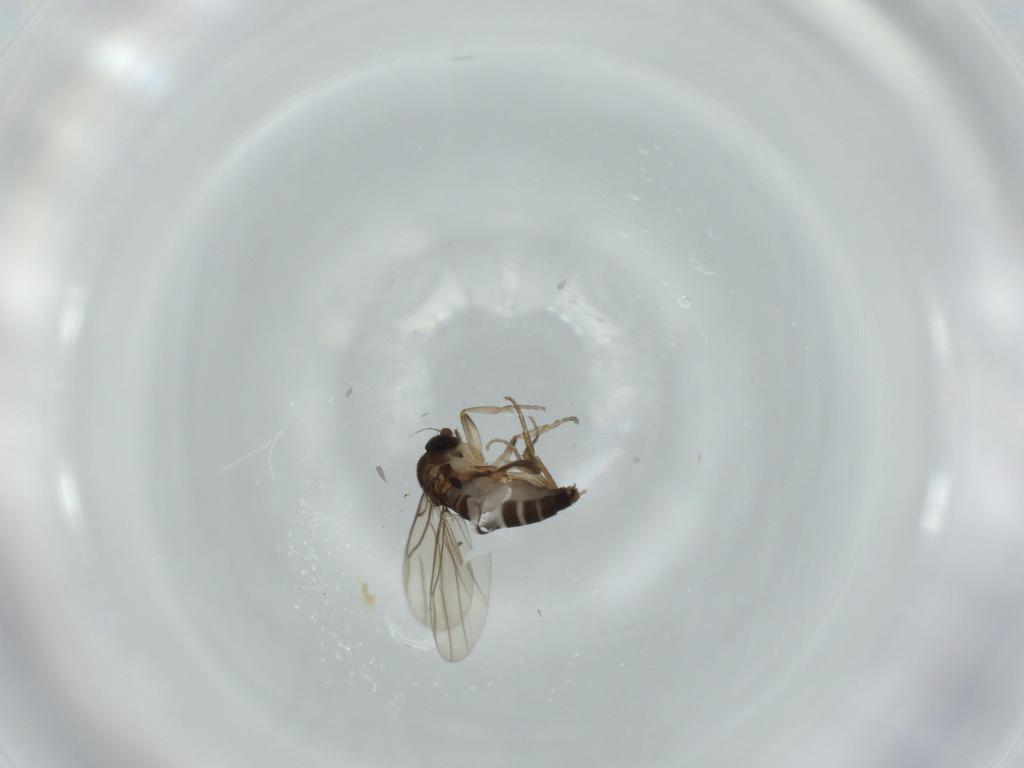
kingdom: Animalia
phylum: Arthropoda
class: Insecta
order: Diptera
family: Phoridae
